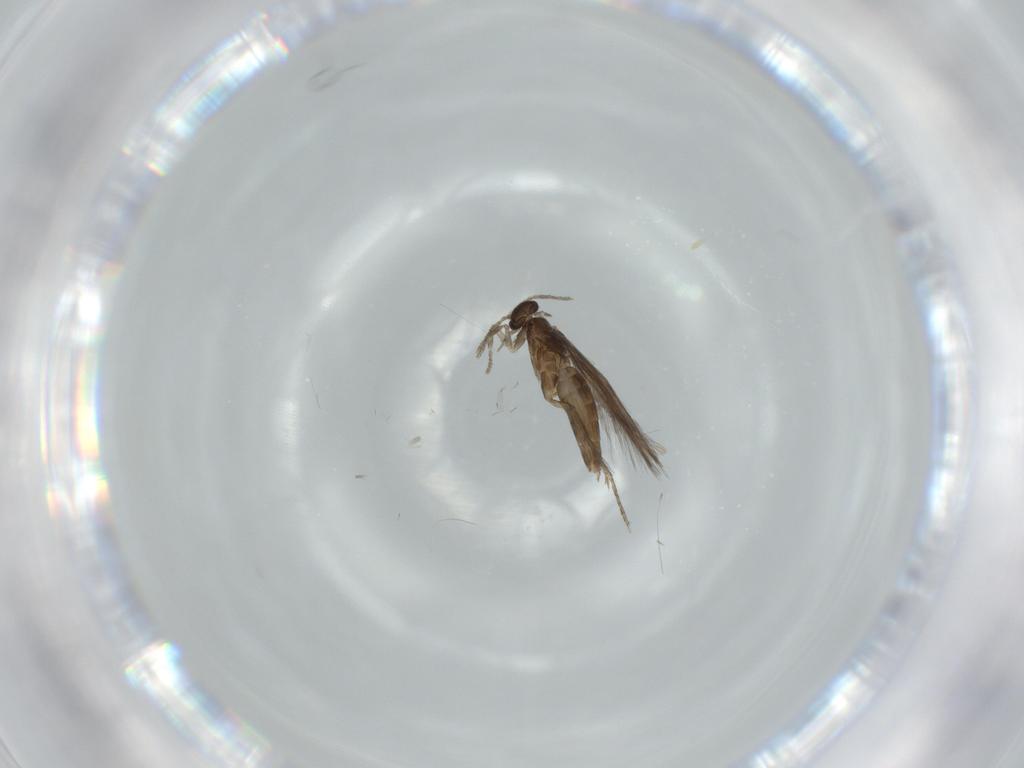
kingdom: Animalia
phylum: Arthropoda
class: Insecta
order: Trichoptera
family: Hydroptilidae
